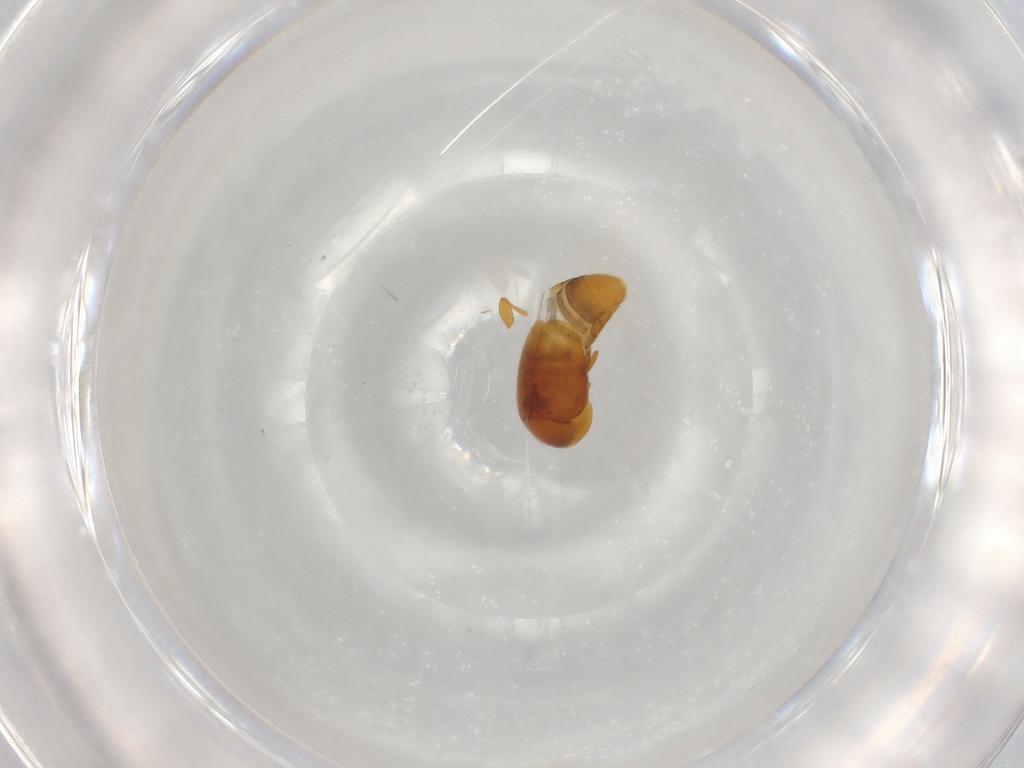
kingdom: Animalia
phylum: Arthropoda
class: Insecta
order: Coleoptera
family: Corylophidae
